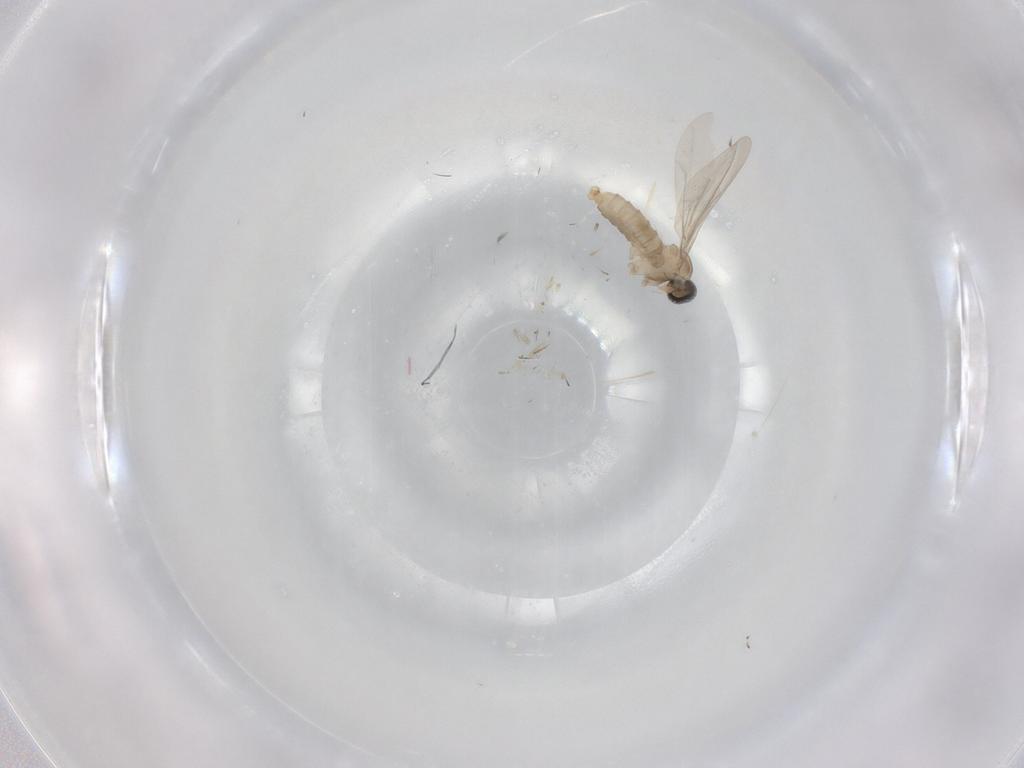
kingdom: Animalia
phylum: Arthropoda
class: Insecta
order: Diptera
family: Cecidomyiidae
